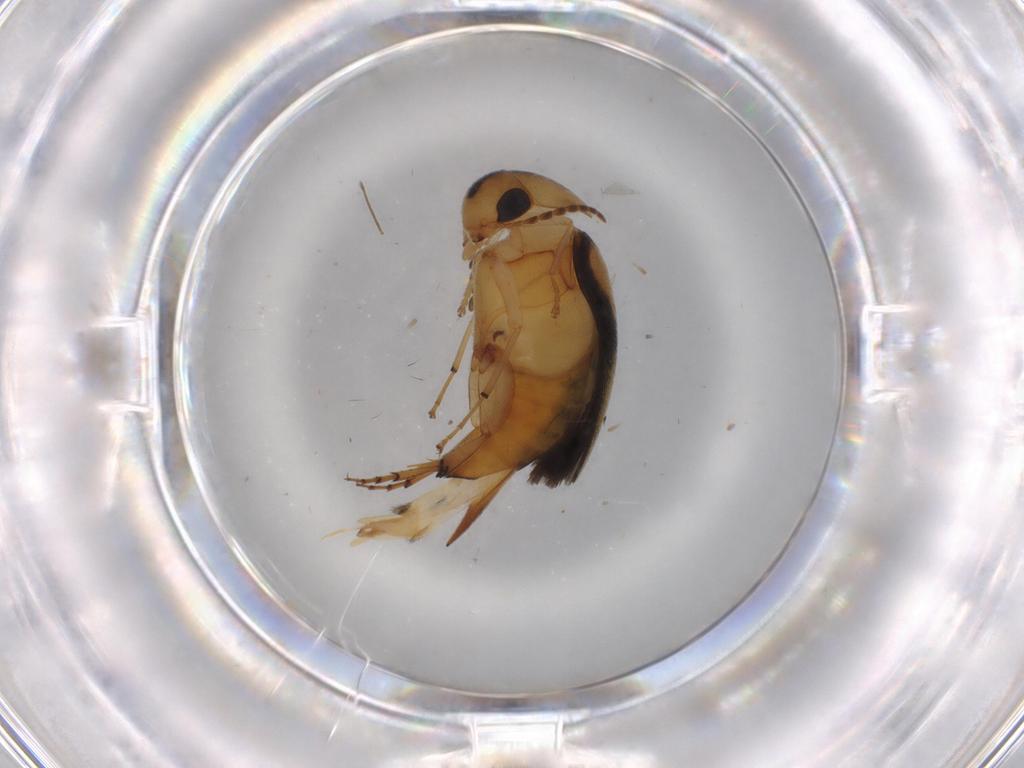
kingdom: Animalia
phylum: Arthropoda
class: Insecta
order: Coleoptera
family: Mordellidae
